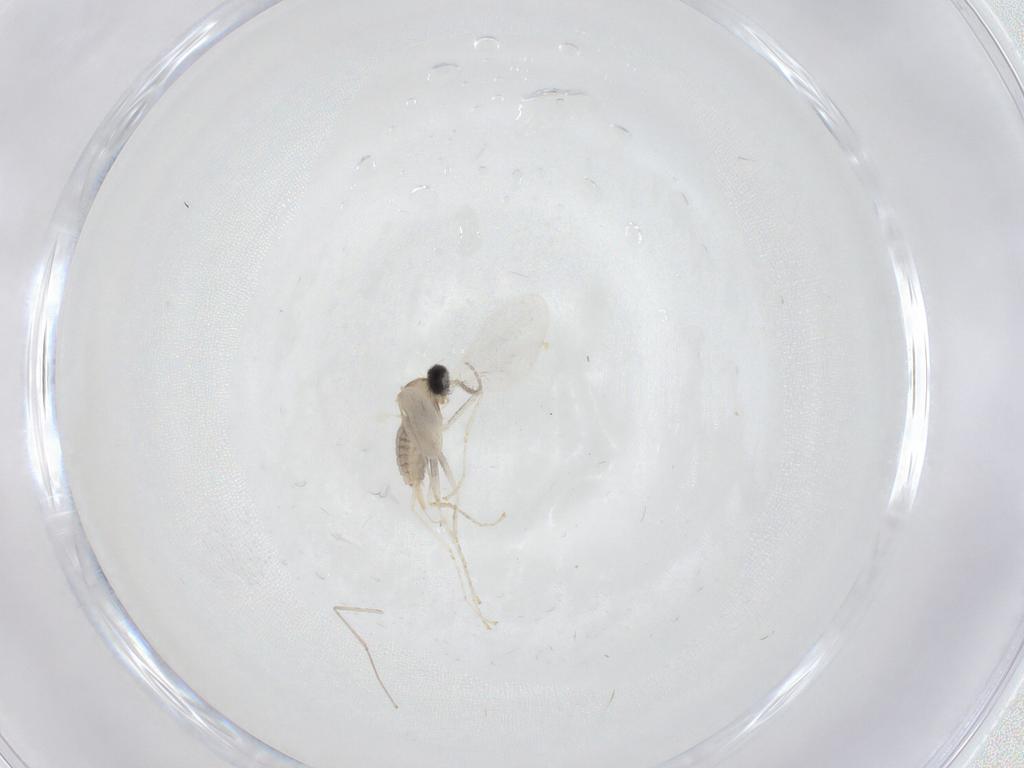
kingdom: Animalia
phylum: Arthropoda
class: Insecta
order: Diptera
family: Cecidomyiidae
